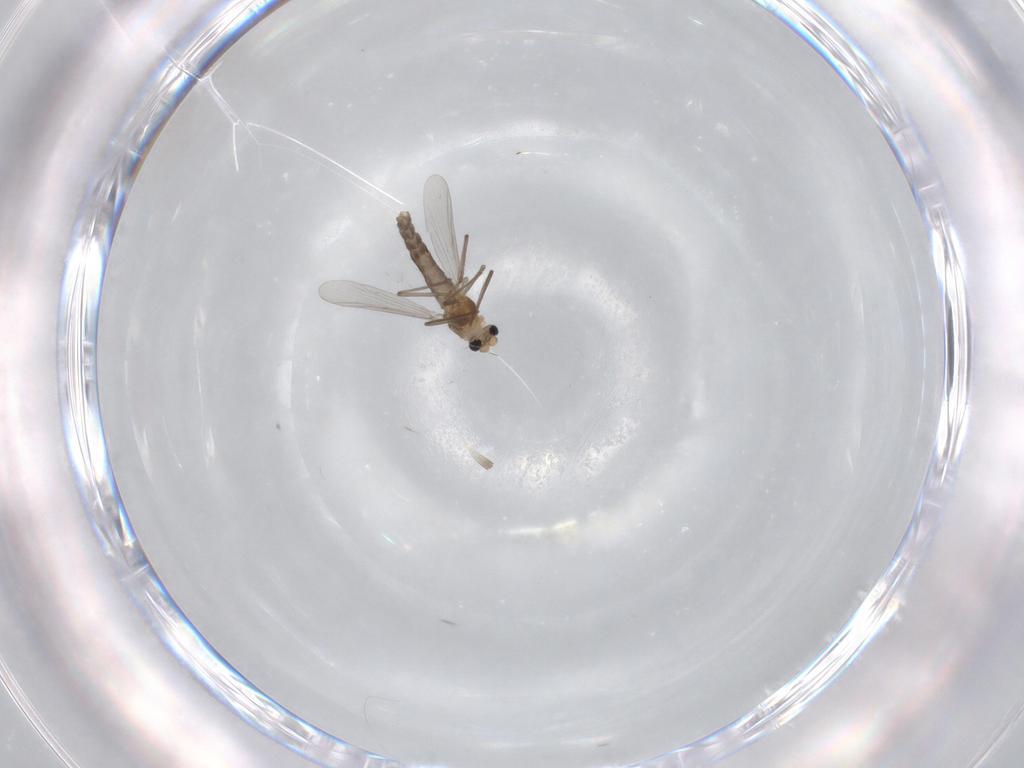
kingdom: Animalia
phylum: Arthropoda
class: Insecta
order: Diptera
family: Chironomidae
